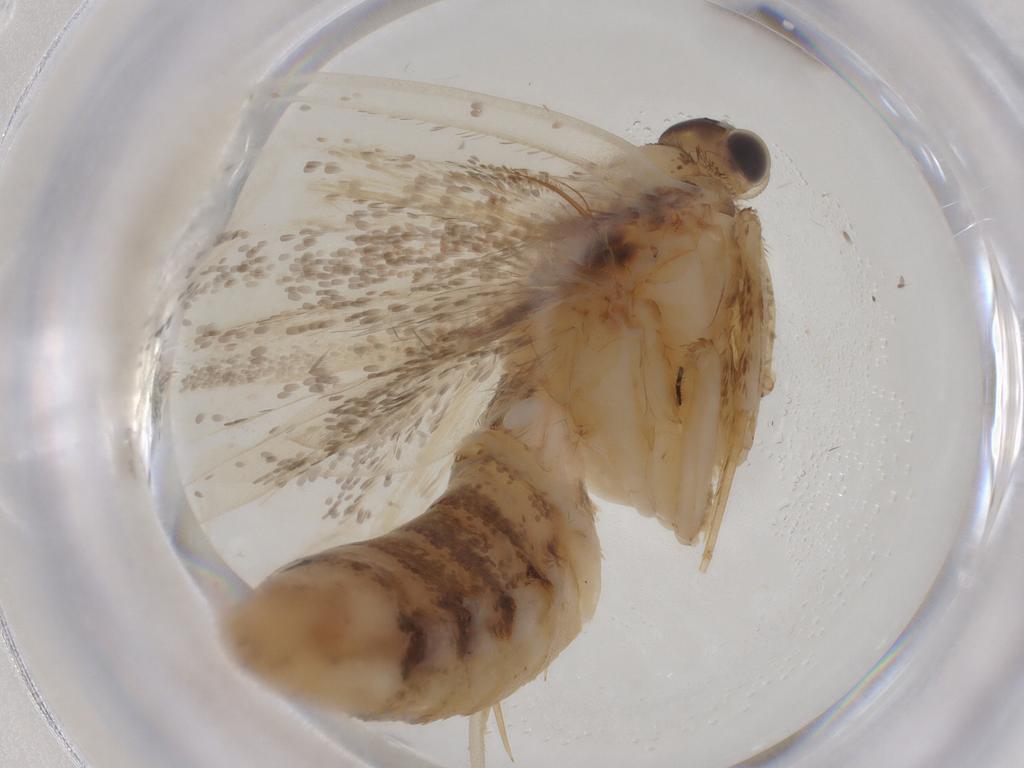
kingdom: Animalia
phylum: Arthropoda
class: Insecta
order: Lepidoptera
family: Tineidae
